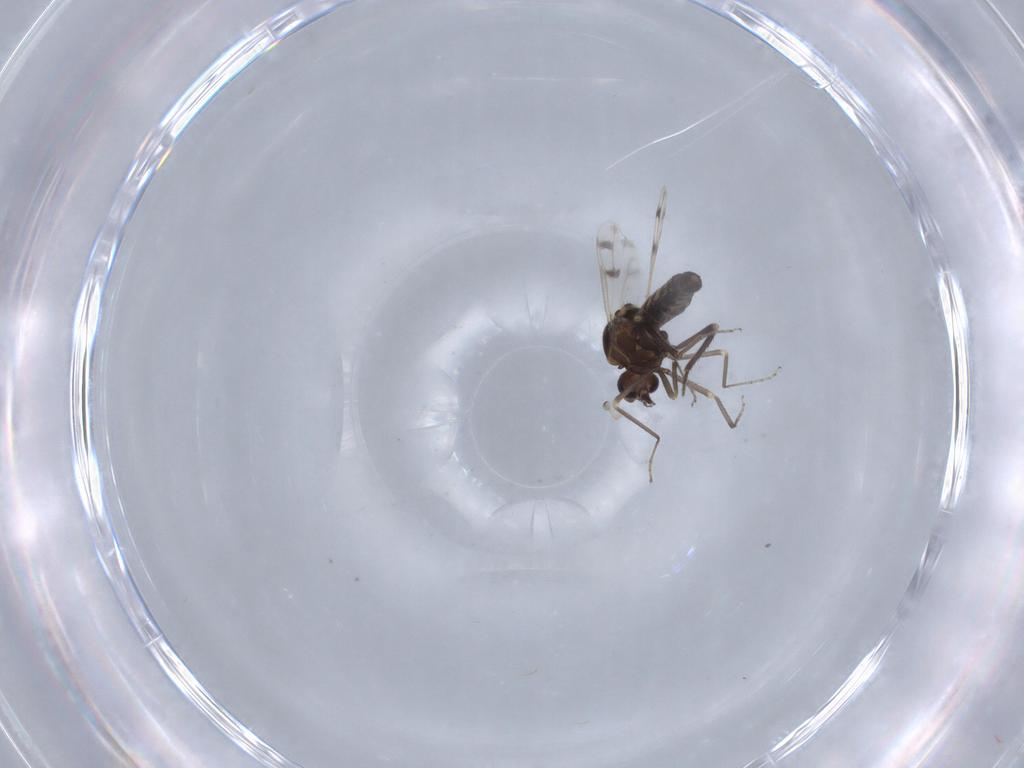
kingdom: Animalia
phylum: Arthropoda
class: Insecta
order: Diptera
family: Ceratopogonidae
